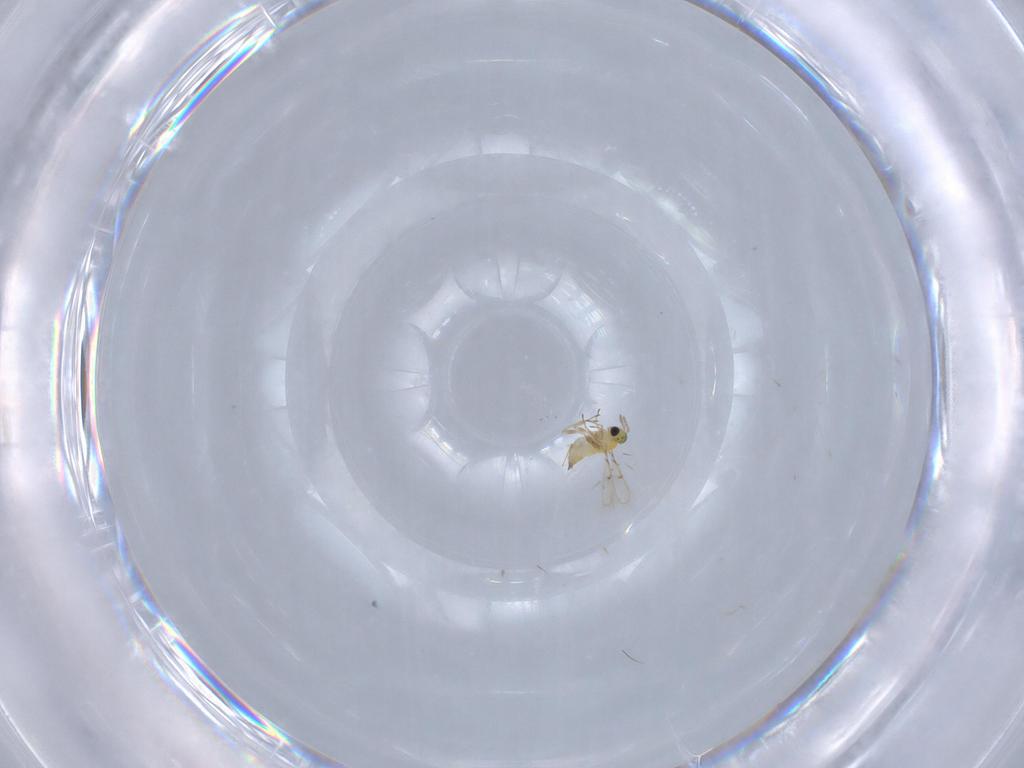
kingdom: Animalia
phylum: Arthropoda
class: Insecta
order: Hymenoptera
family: Trichogrammatidae
